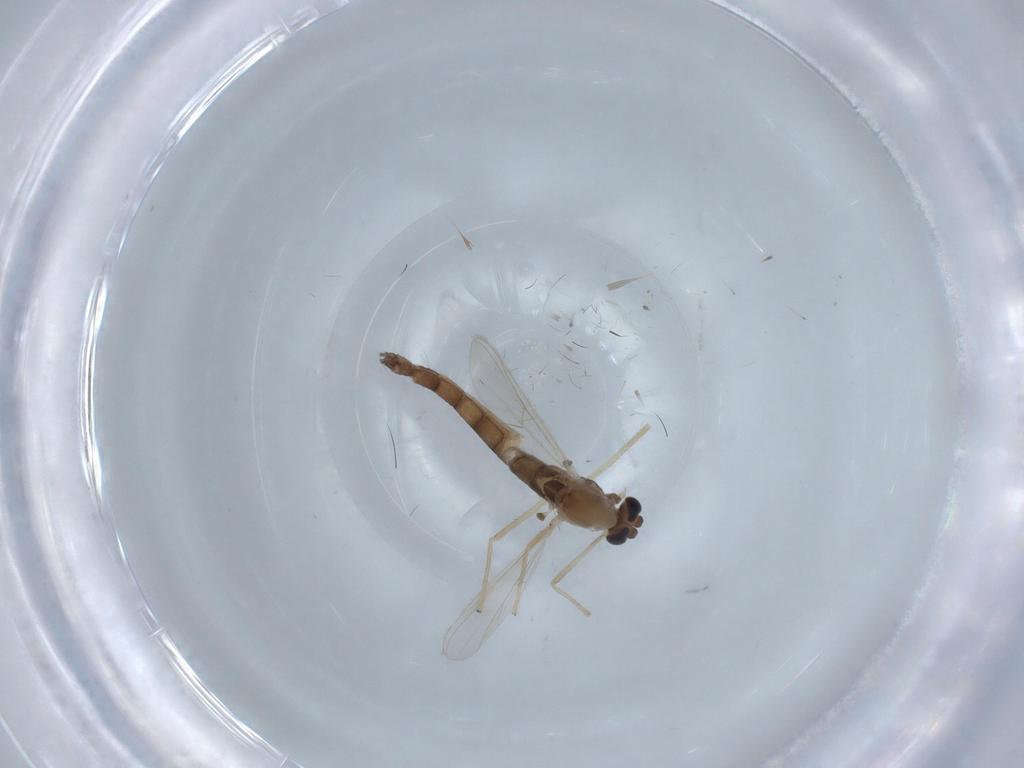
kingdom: Animalia
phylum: Arthropoda
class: Insecta
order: Diptera
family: Chironomidae
